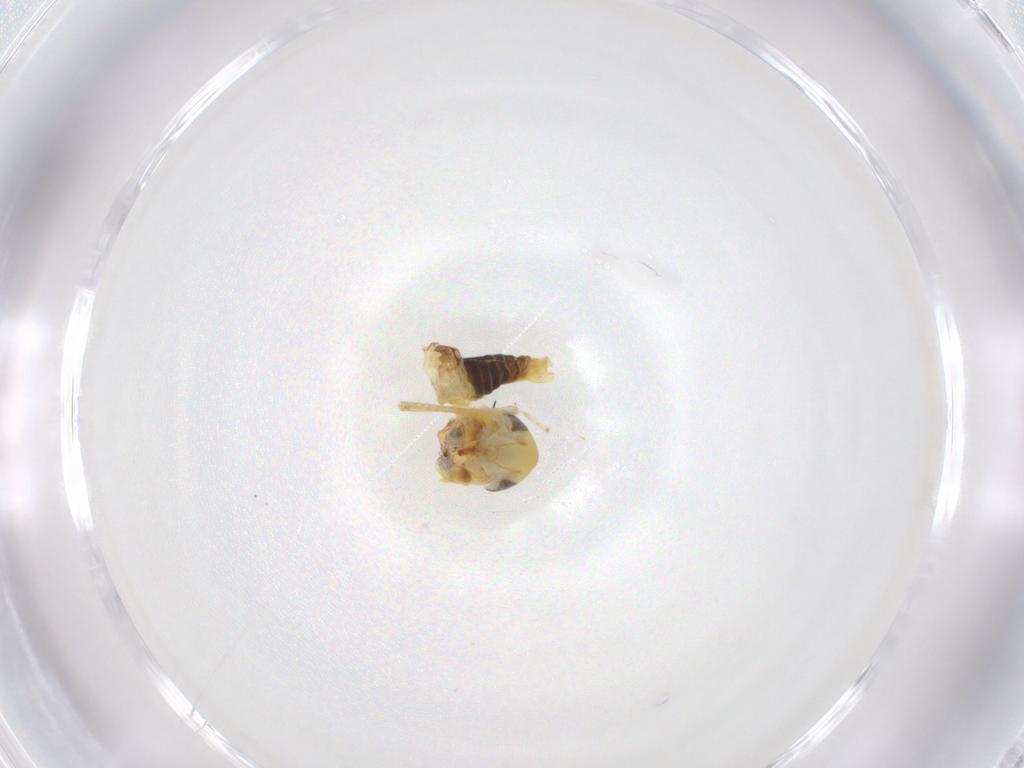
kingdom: Animalia
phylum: Arthropoda
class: Insecta
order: Hemiptera
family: Cicadellidae
